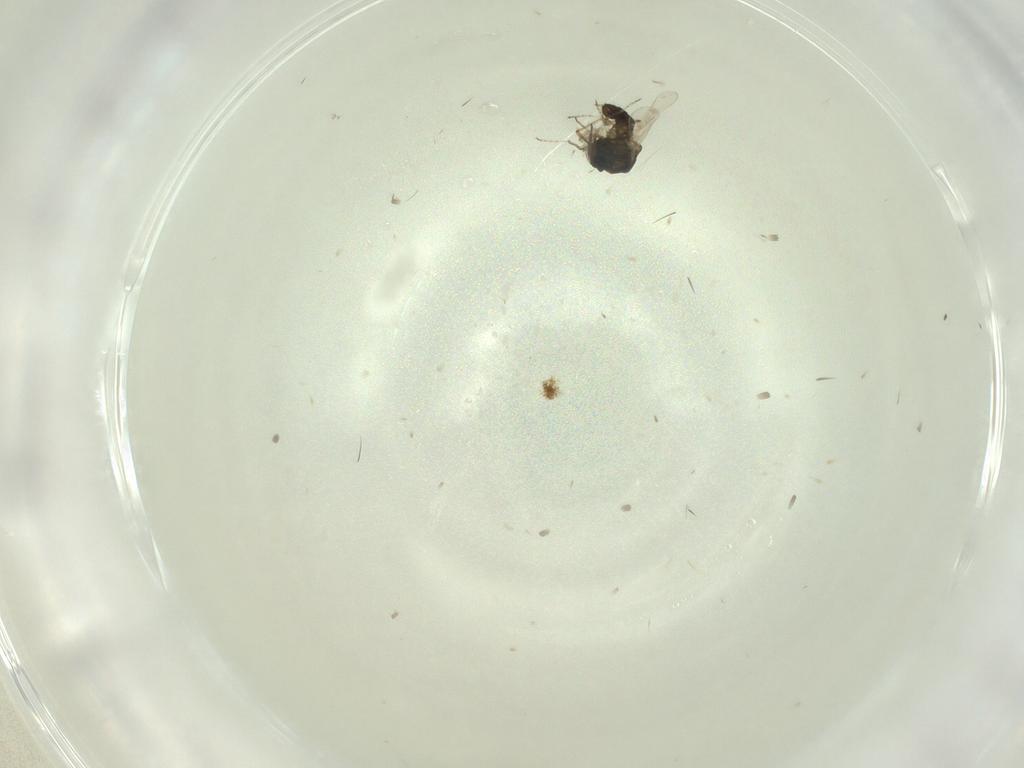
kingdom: Animalia
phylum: Arthropoda
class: Insecta
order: Diptera
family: Ceratopogonidae
